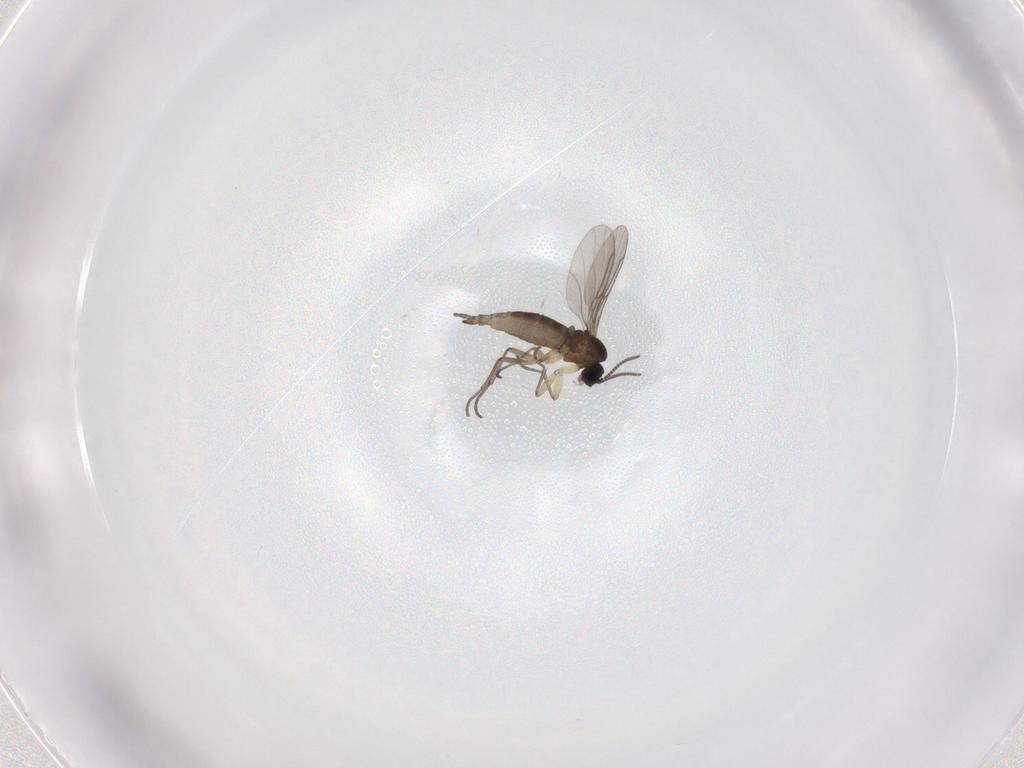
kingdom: Animalia
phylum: Arthropoda
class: Insecta
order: Diptera
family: Sciaridae
